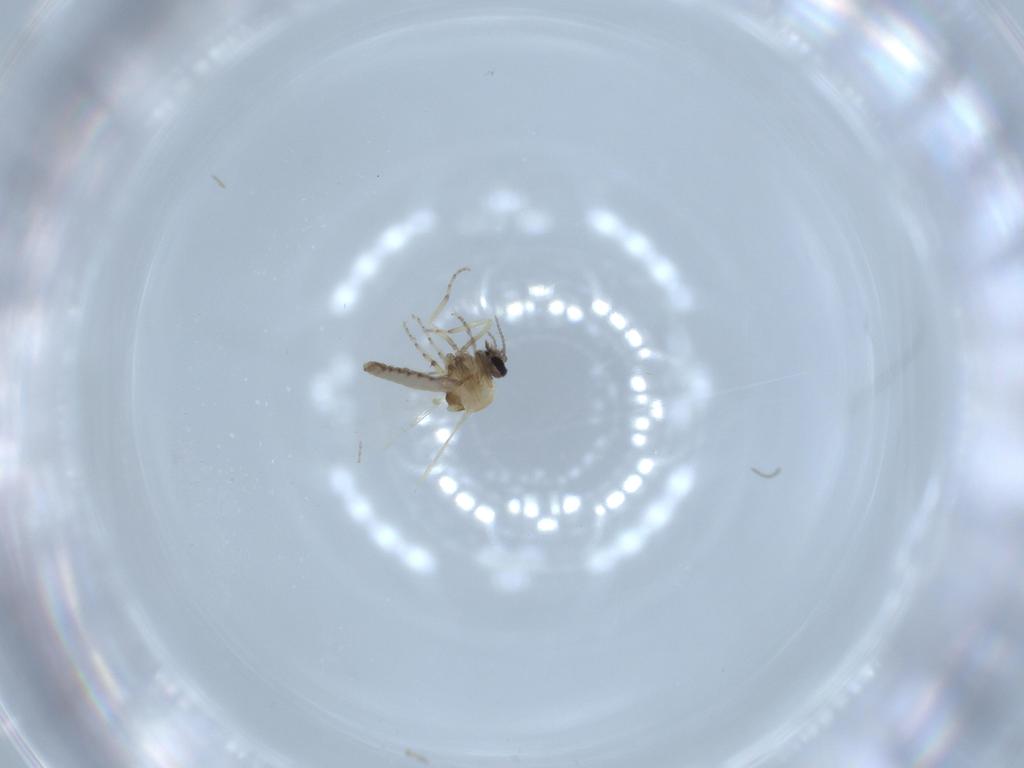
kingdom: Animalia
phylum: Arthropoda
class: Insecta
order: Diptera
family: Ceratopogonidae
